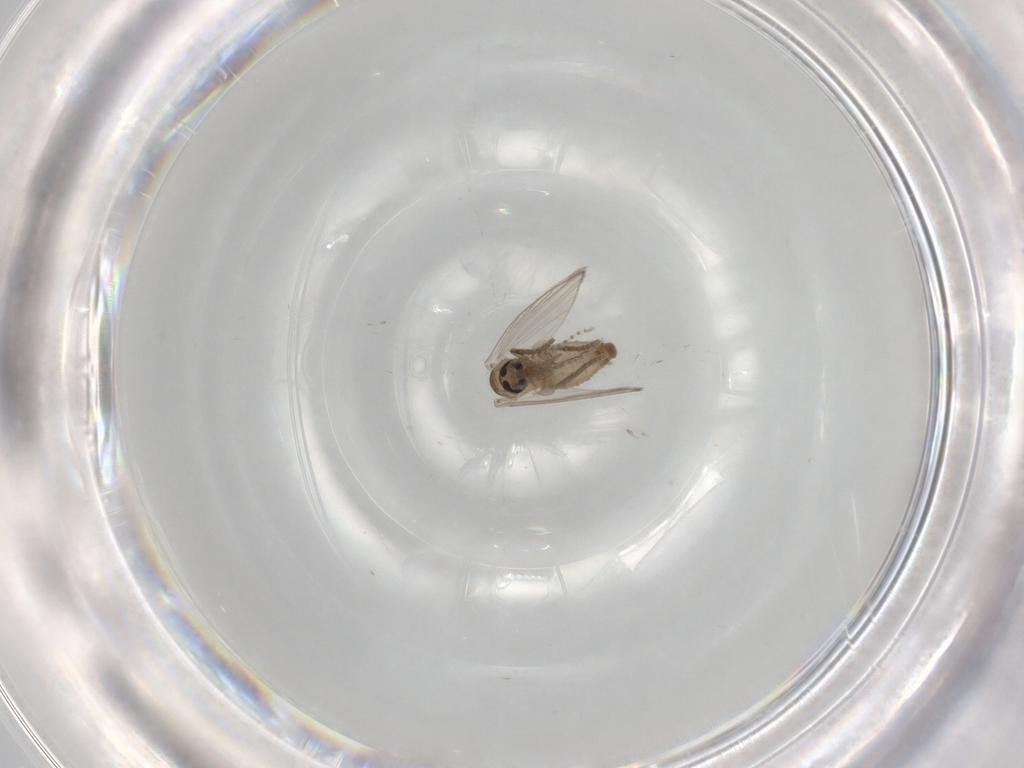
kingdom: Animalia
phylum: Arthropoda
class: Insecta
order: Diptera
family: Psychodidae
